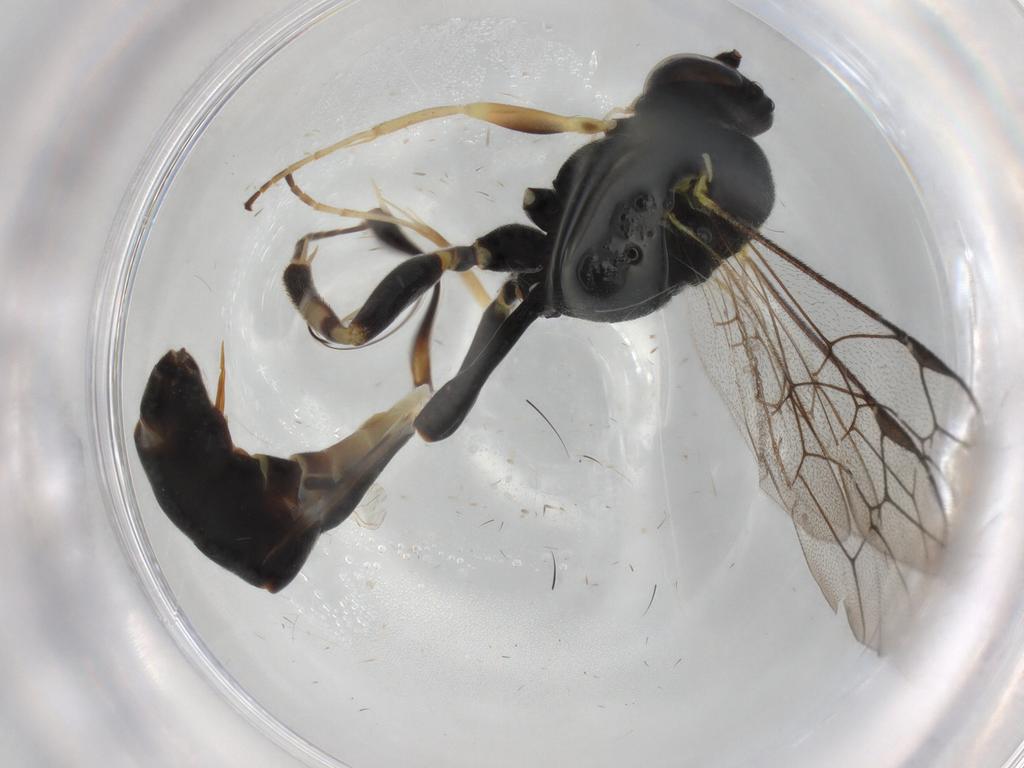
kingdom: Animalia
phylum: Arthropoda
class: Insecta
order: Hymenoptera
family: Ichneumonidae
